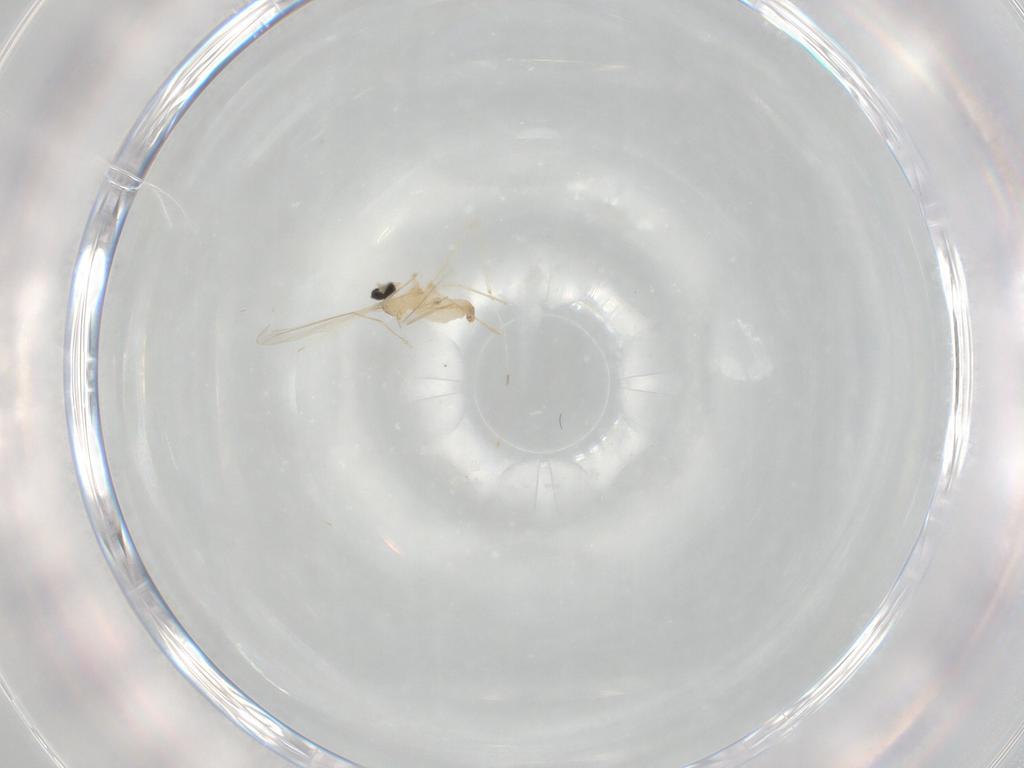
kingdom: Animalia
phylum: Arthropoda
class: Insecta
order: Diptera
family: Cecidomyiidae
